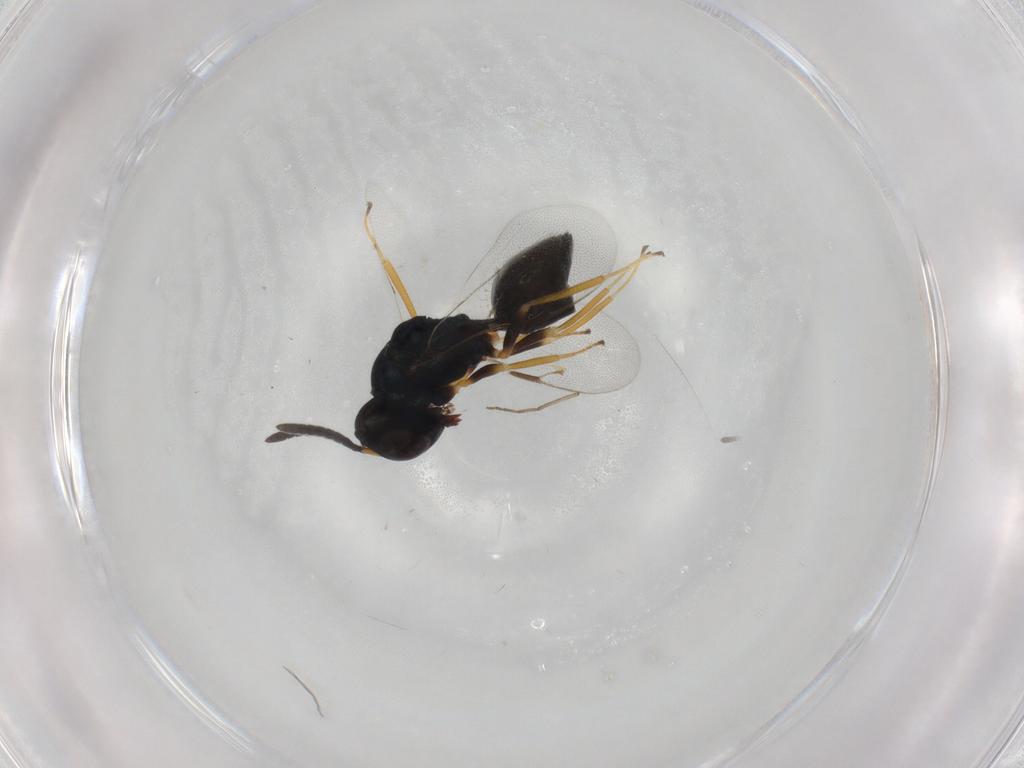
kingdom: Animalia
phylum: Arthropoda
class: Insecta
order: Hymenoptera
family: Pteromalidae
